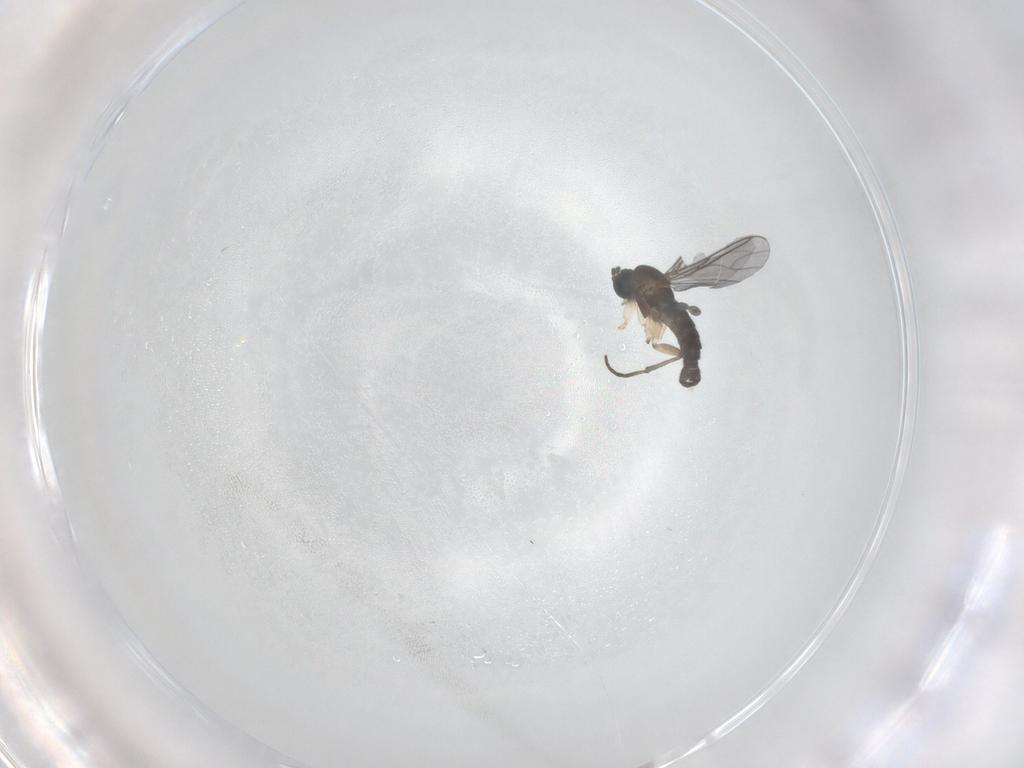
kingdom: Animalia
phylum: Arthropoda
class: Insecta
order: Diptera
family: Sciaridae
